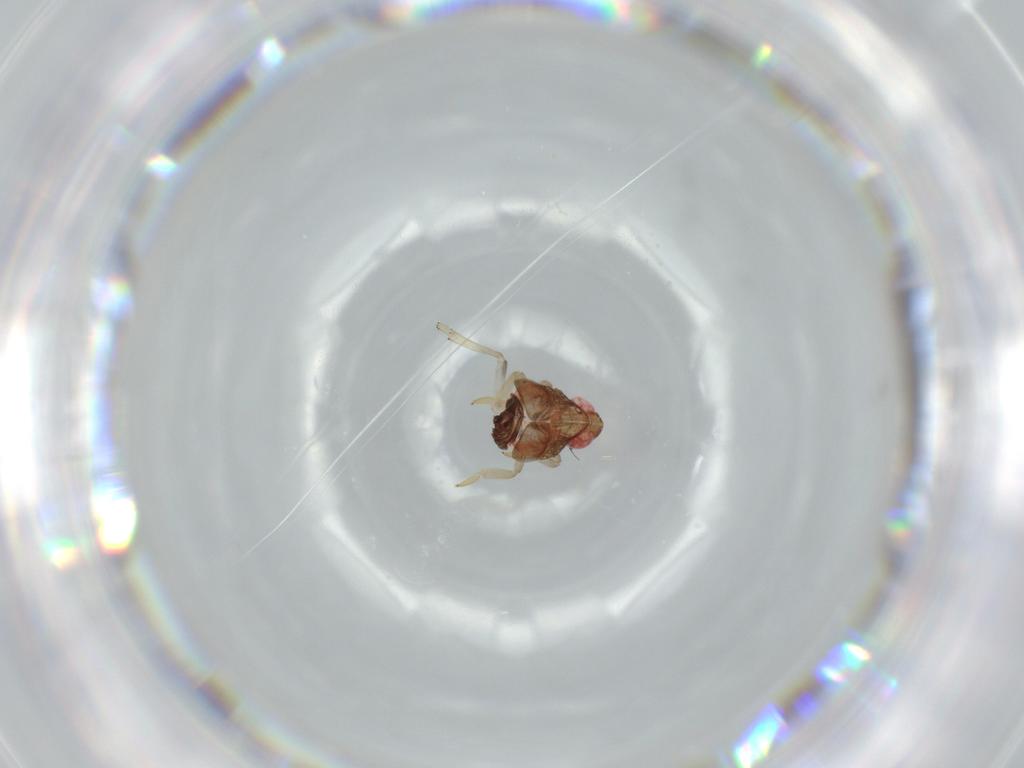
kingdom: Animalia
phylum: Arthropoda
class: Insecta
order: Hemiptera
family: Issidae
